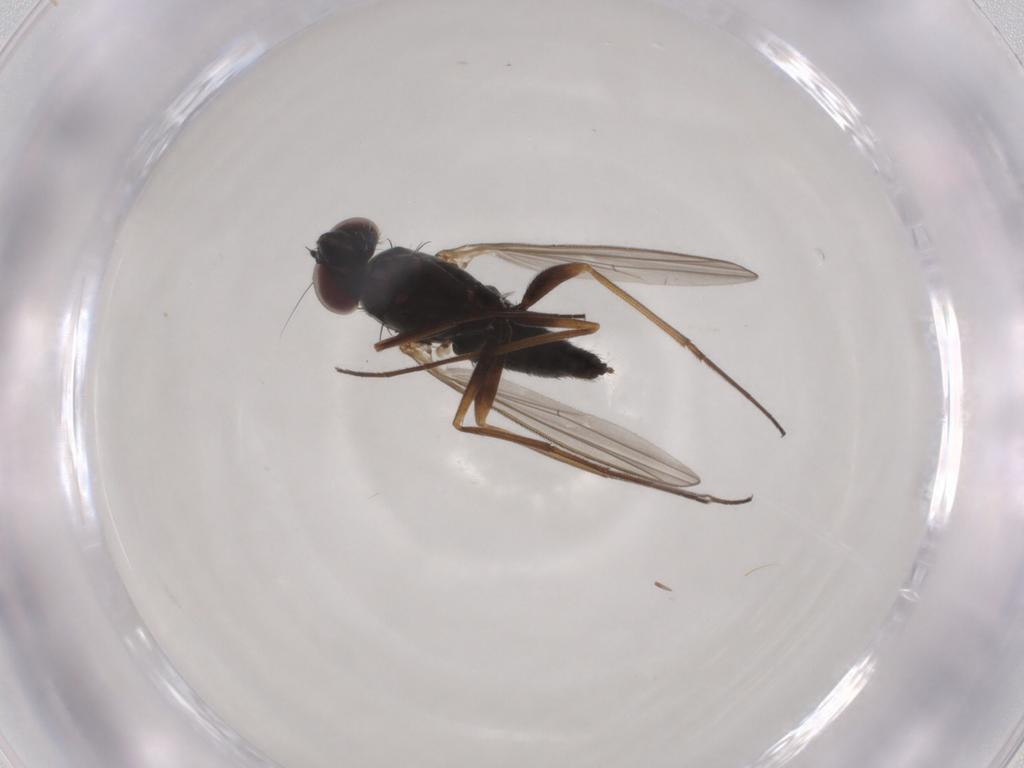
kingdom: Animalia
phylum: Arthropoda
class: Insecta
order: Diptera
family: Dolichopodidae
